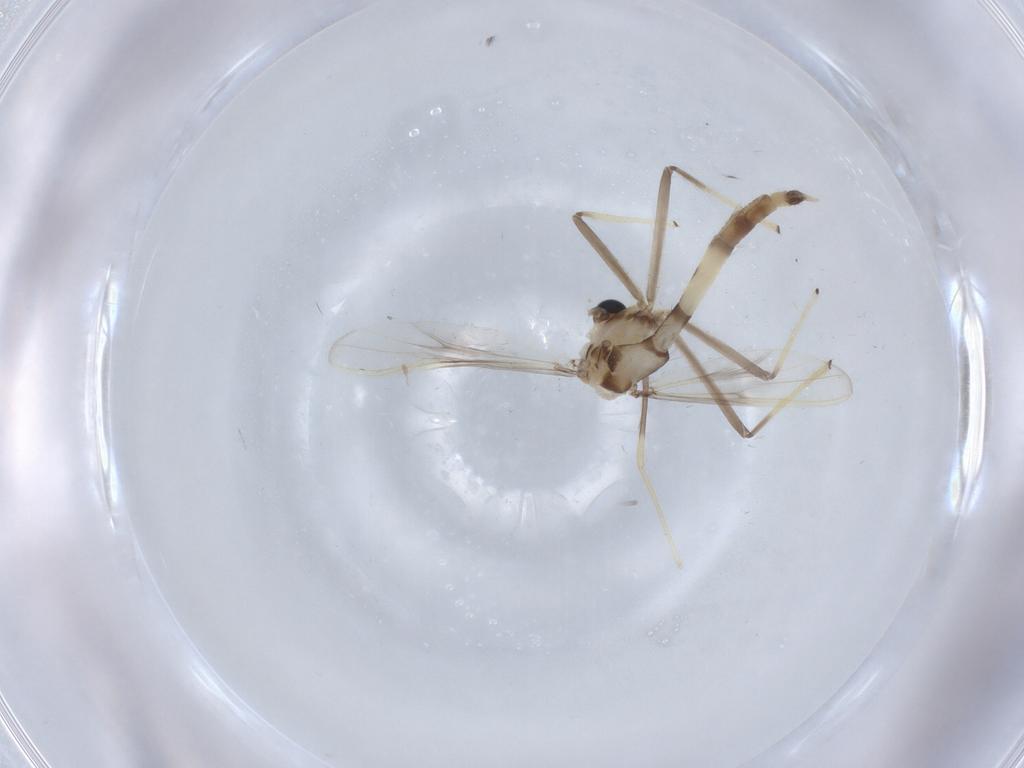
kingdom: Animalia
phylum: Arthropoda
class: Insecta
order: Diptera
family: Chironomidae
